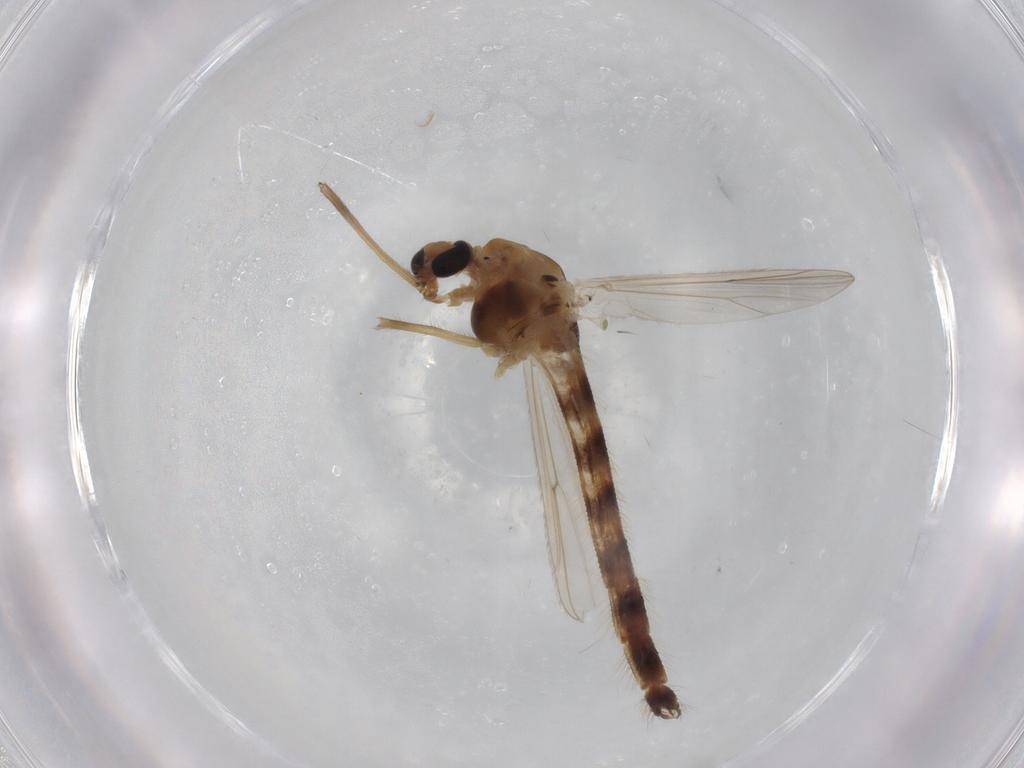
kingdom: Animalia
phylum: Arthropoda
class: Insecta
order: Diptera
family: Chironomidae
